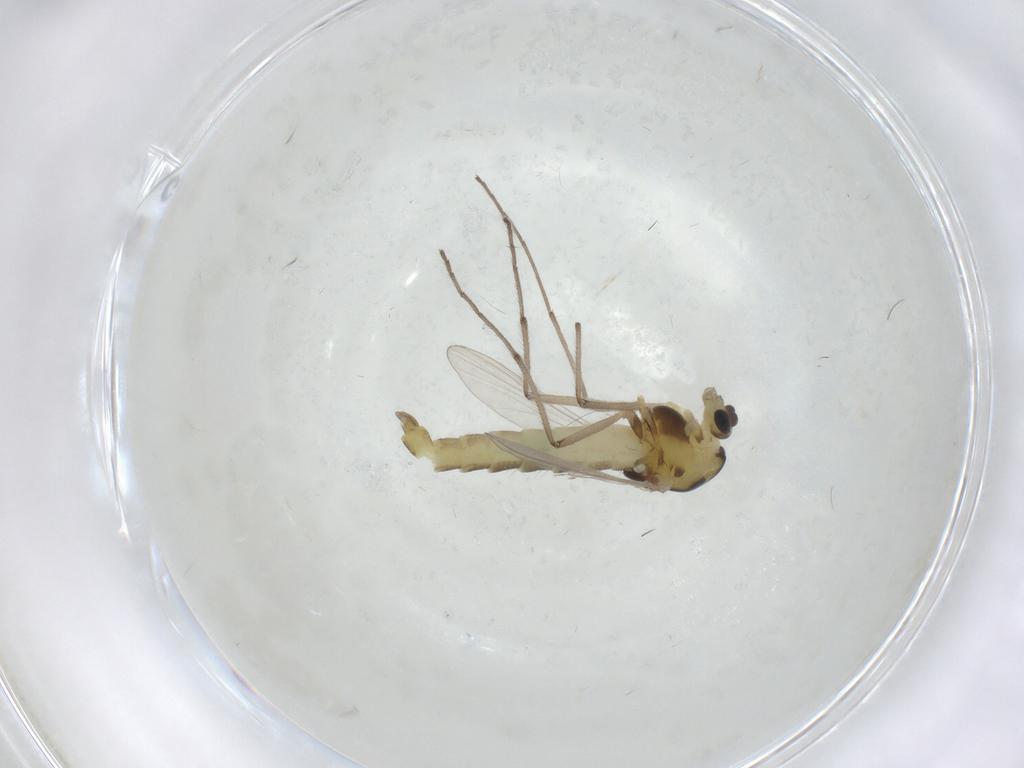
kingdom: Animalia
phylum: Arthropoda
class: Insecta
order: Diptera
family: Chironomidae
